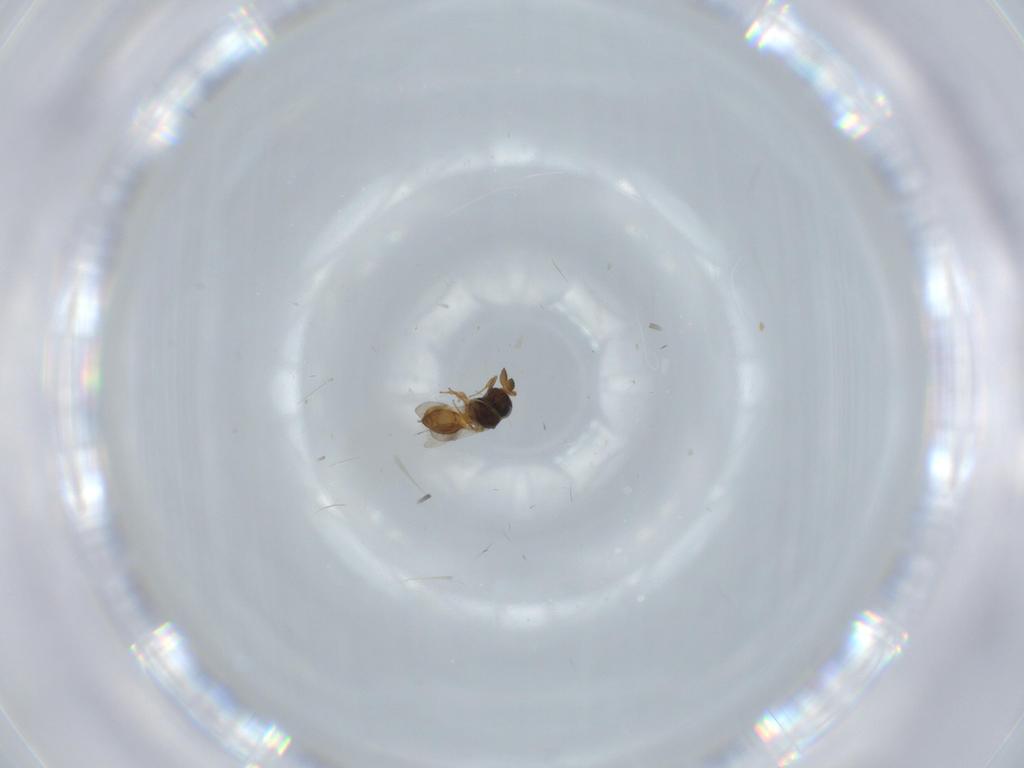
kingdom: Animalia
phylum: Arthropoda
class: Insecta
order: Hymenoptera
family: Scelionidae
